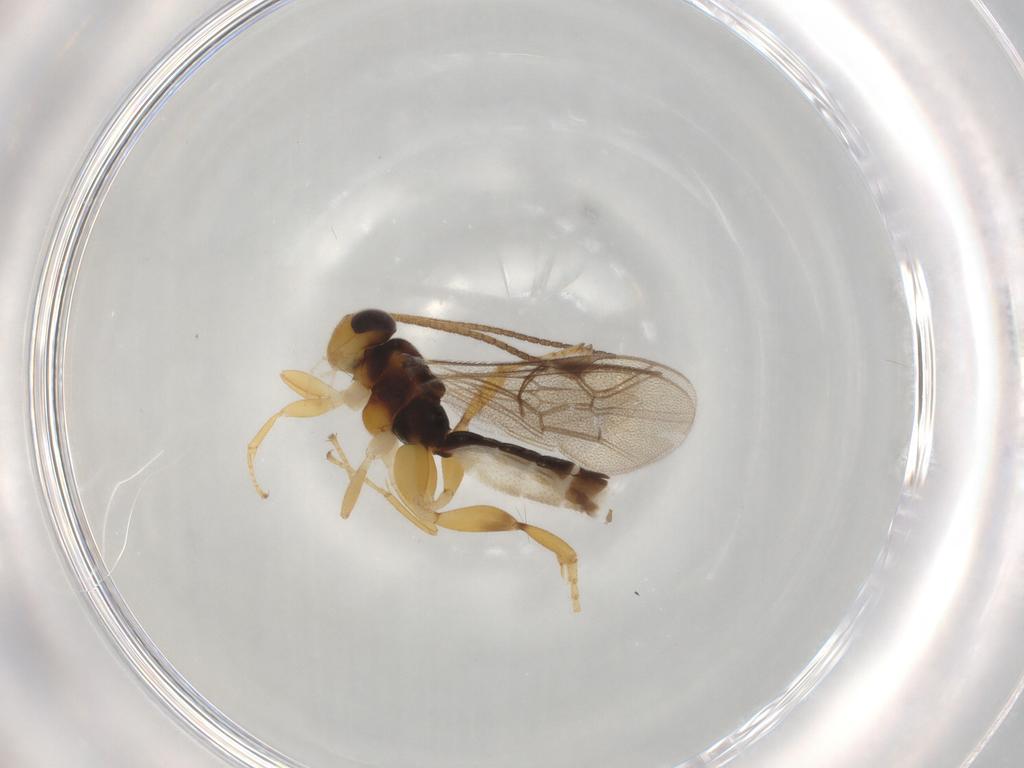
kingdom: Animalia
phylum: Arthropoda
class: Insecta
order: Hymenoptera
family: Ichneumonidae
